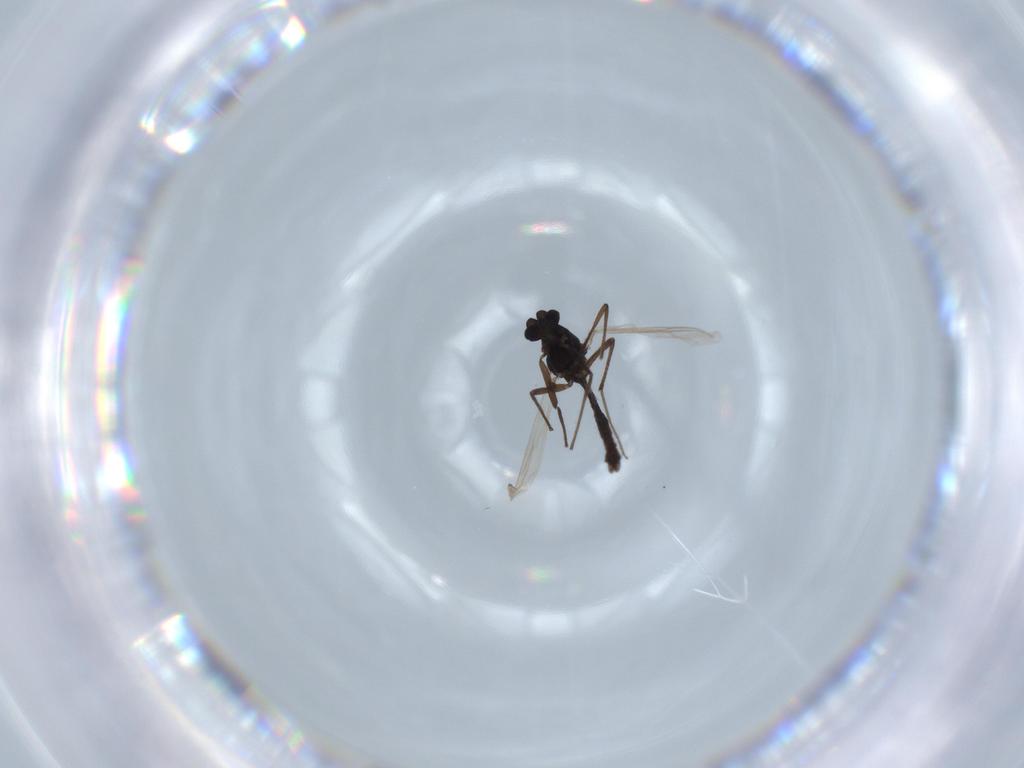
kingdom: Animalia
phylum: Arthropoda
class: Insecta
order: Diptera
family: Chironomidae
